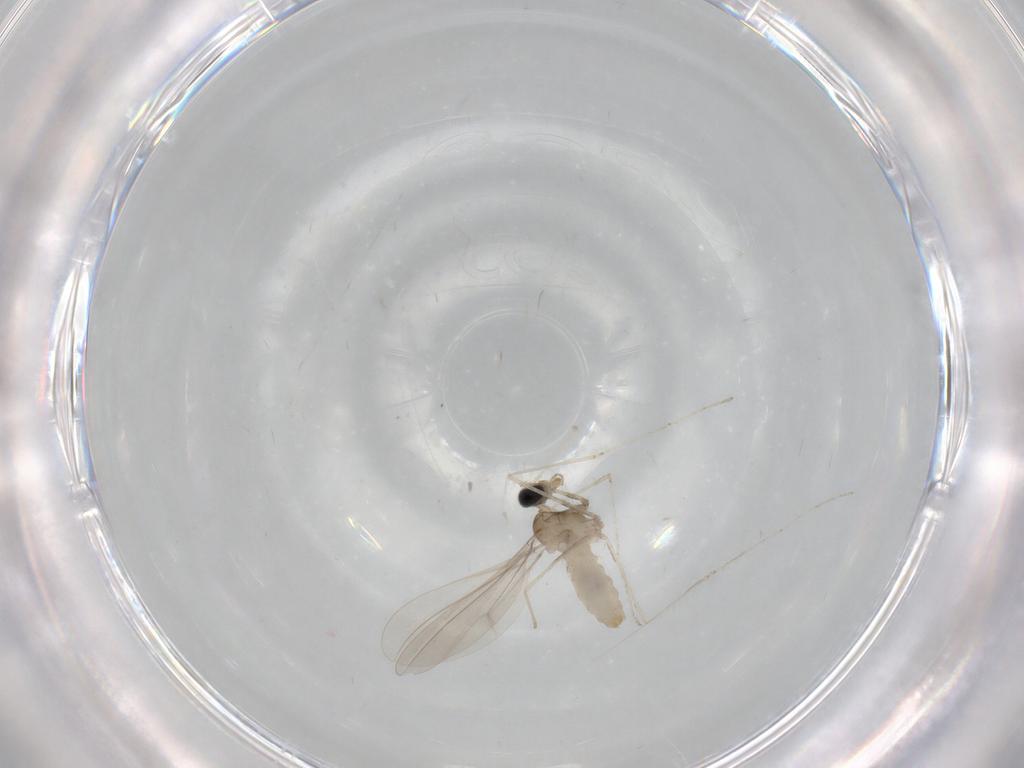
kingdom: Animalia
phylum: Arthropoda
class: Insecta
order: Diptera
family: Cecidomyiidae
